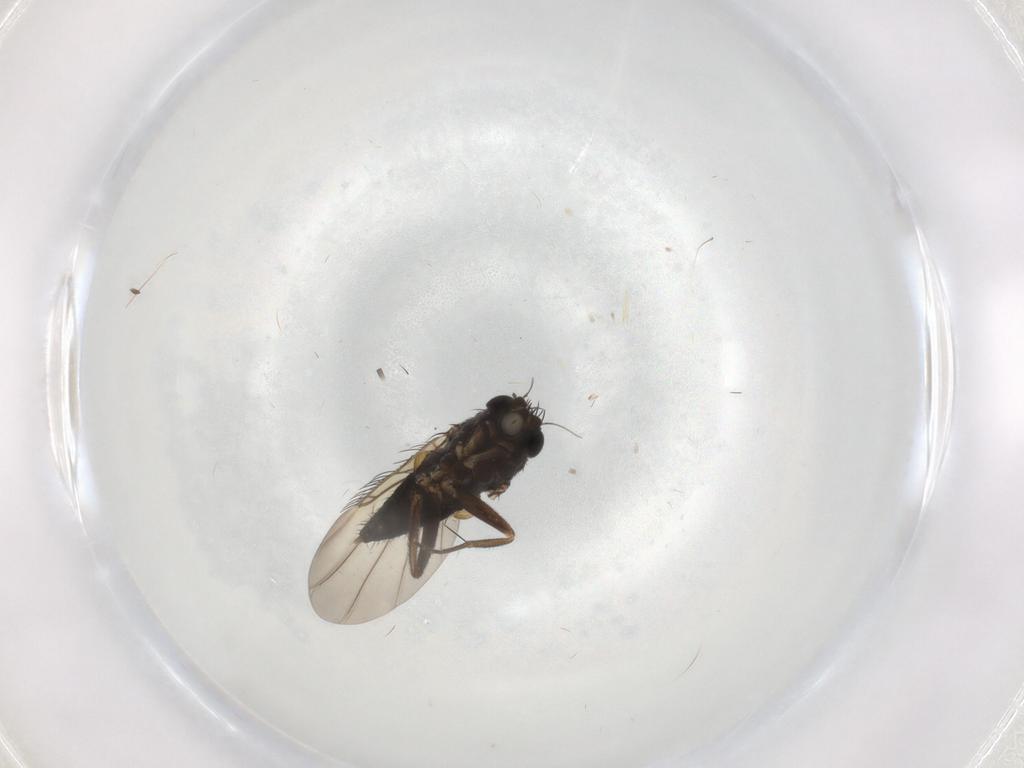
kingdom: Animalia
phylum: Arthropoda
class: Insecta
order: Diptera
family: Phoridae
